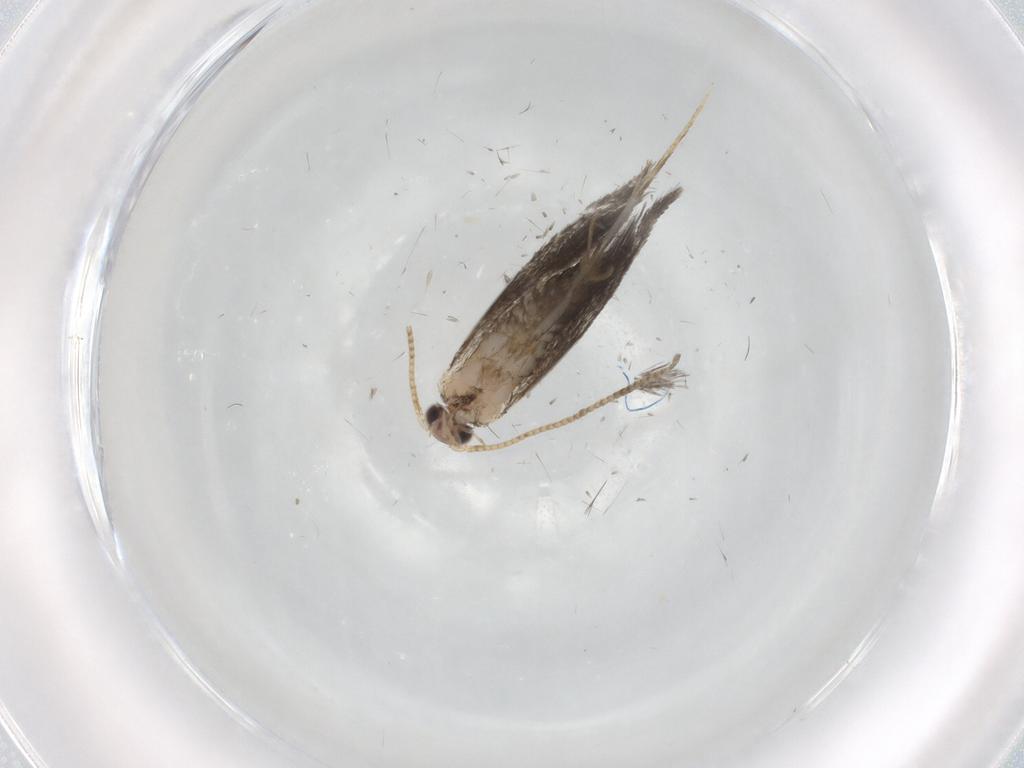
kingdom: Animalia
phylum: Arthropoda
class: Insecta
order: Lepidoptera
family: Tineidae
